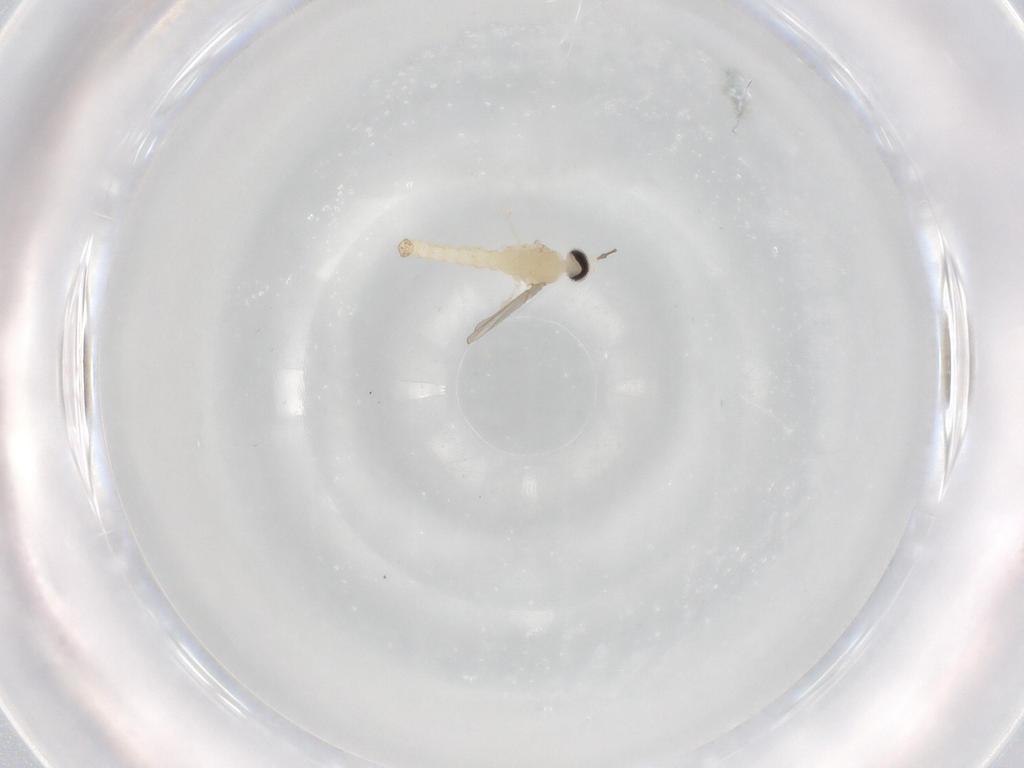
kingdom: Animalia
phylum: Arthropoda
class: Insecta
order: Diptera
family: Cecidomyiidae
